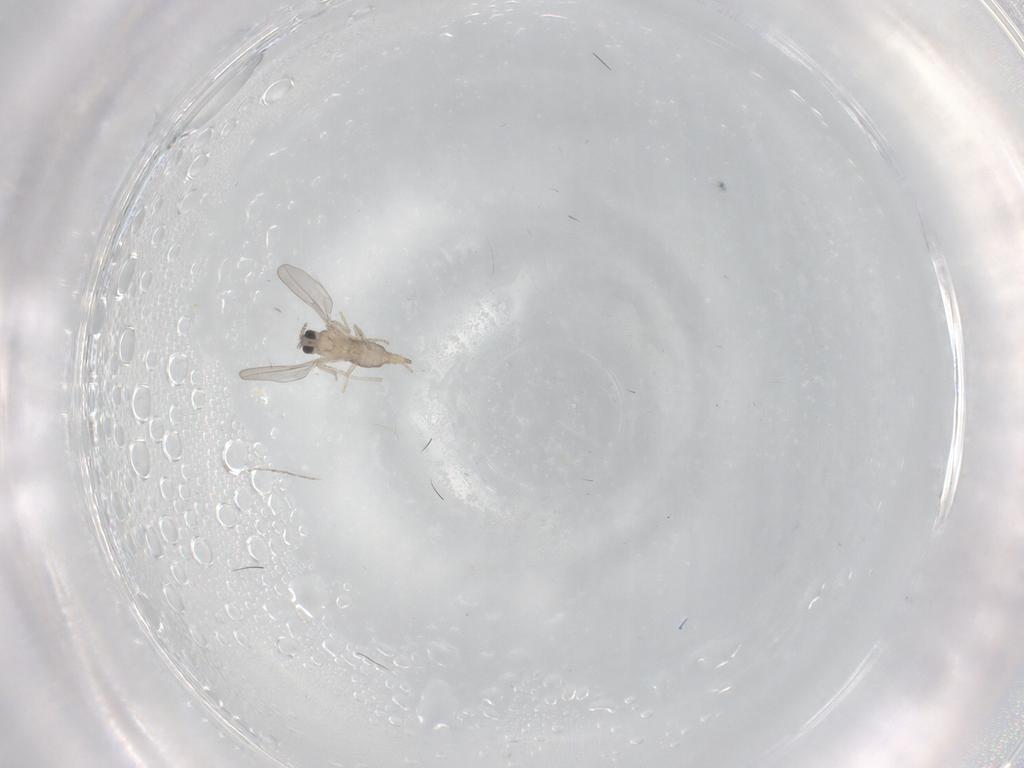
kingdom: Animalia
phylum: Arthropoda
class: Insecta
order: Diptera
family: Cecidomyiidae
